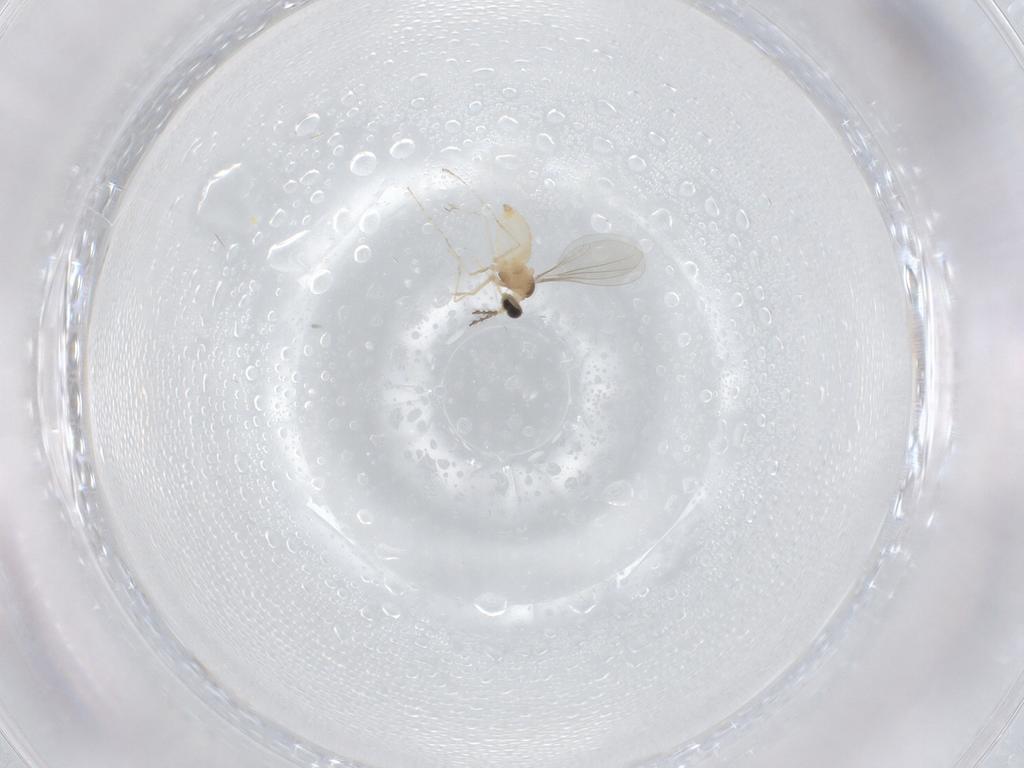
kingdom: Animalia
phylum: Arthropoda
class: Insecta
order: Diptera
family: Cecidomyiidae
